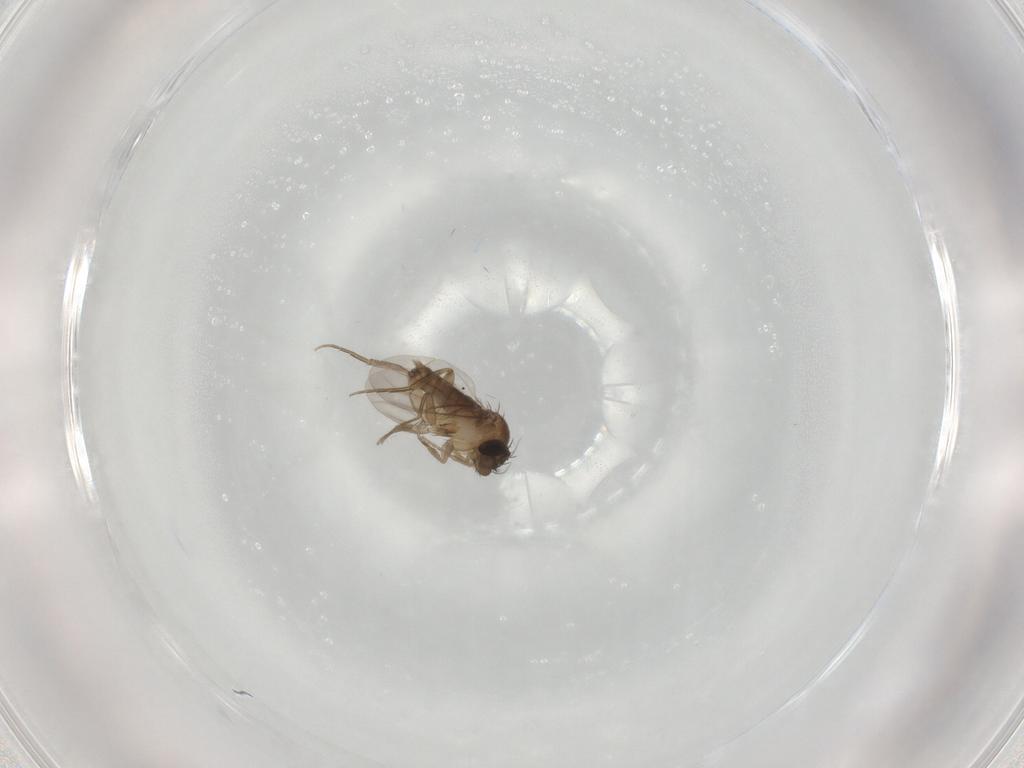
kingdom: Animalia
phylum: Arthropoda
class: Insecta
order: Diptera
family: Phoridae
